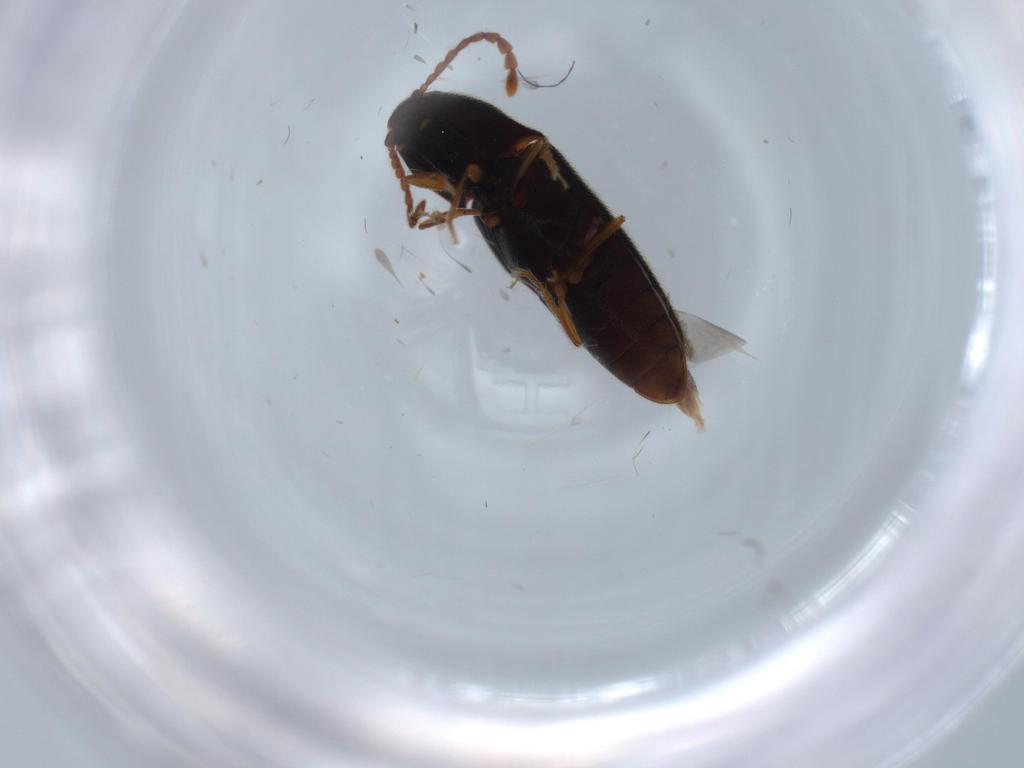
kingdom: Animalia
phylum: Arthropoda
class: Insecta
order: Coleoptera
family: Elateridae
